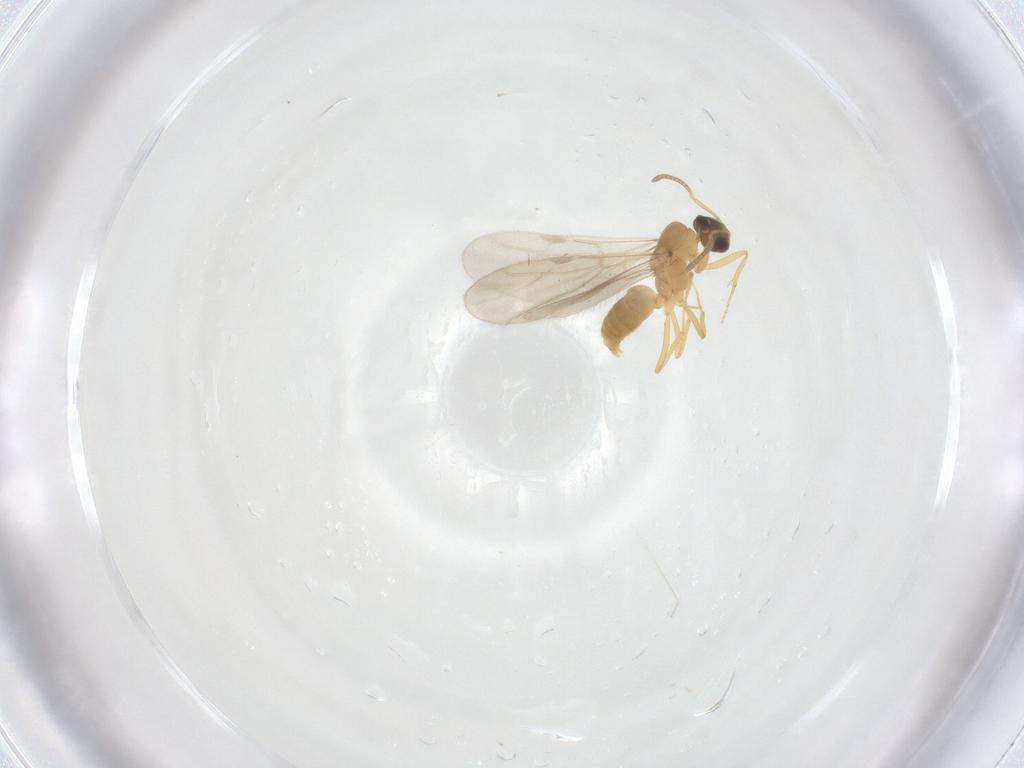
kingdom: Animalia
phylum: Arthropoda
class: Insecta
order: Hymenoptera
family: Formicidae
